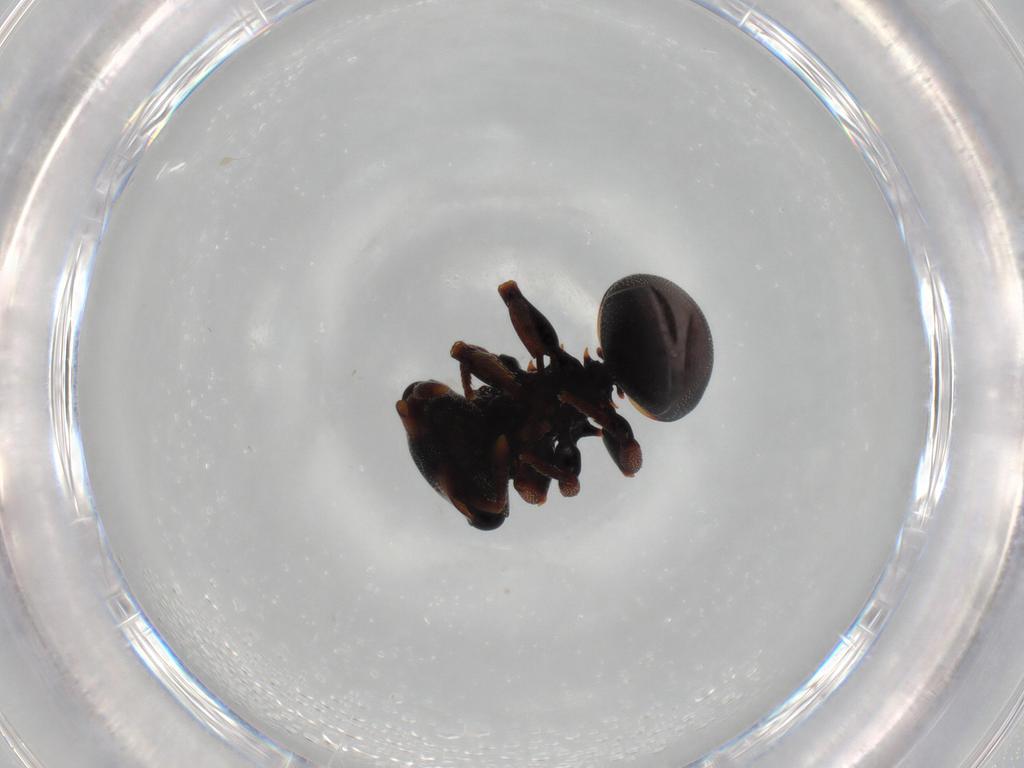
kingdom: Animalia
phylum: Arthropoda
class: Insecta
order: Hymenoptera
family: Formicidae
